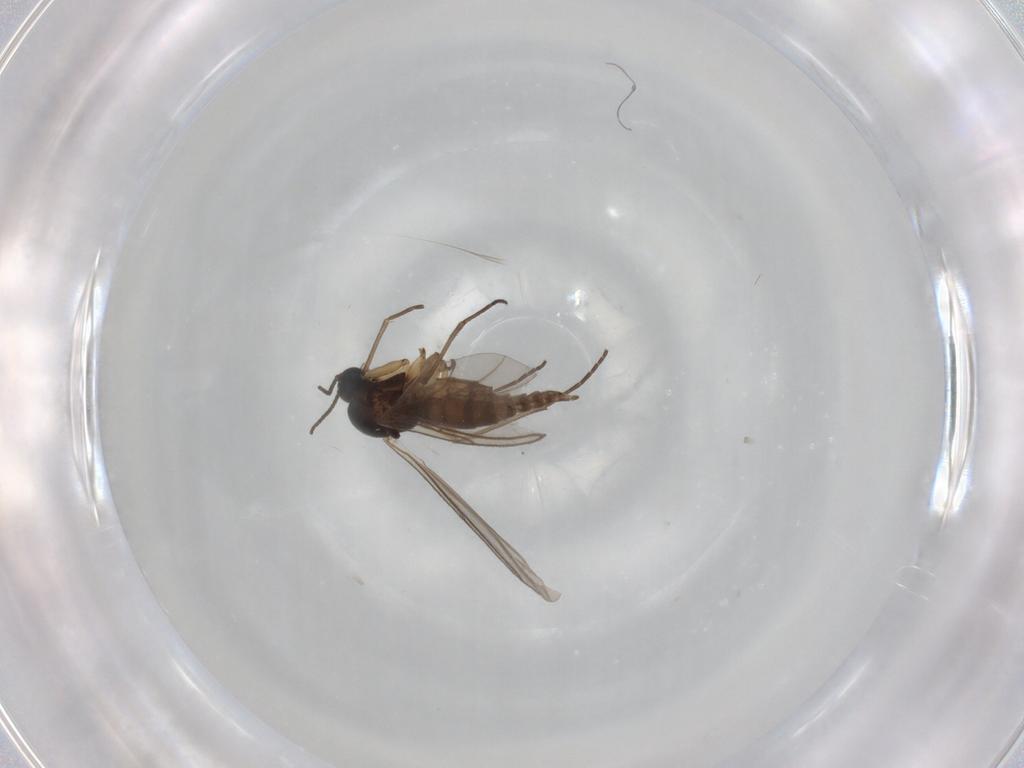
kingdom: Animalia
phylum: Arthropoda
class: Insecta
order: Diptera
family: Sciaridae
